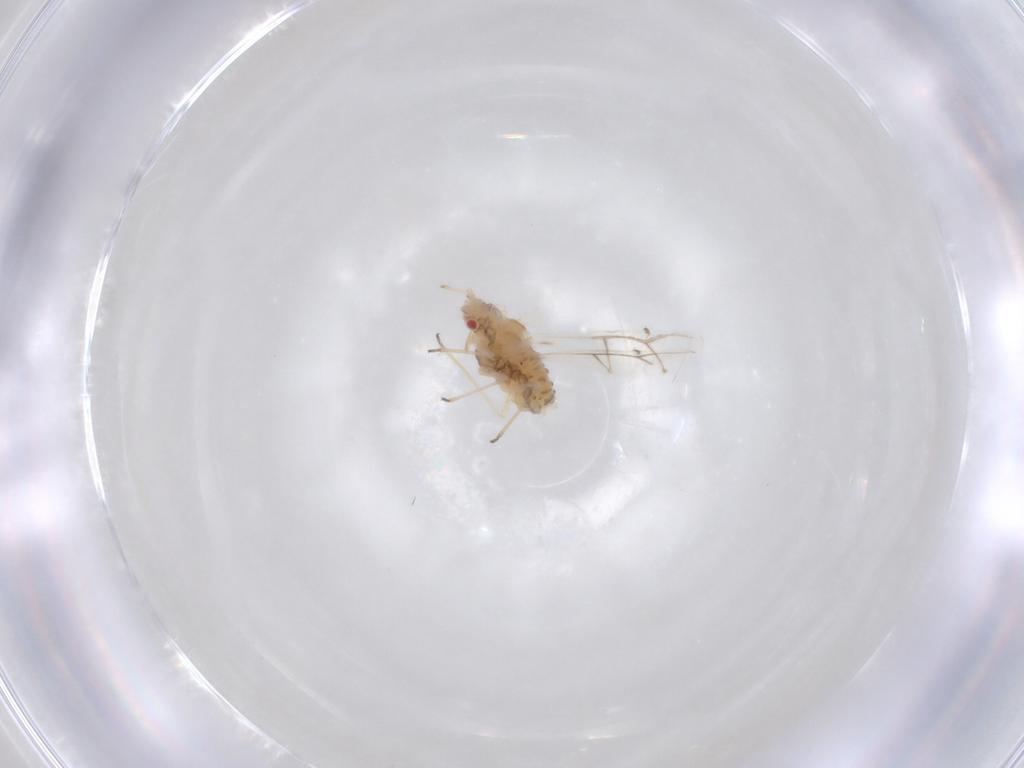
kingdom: Animalia
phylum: Arthropoda
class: Insecta
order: Hemiptera
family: Aphididae
